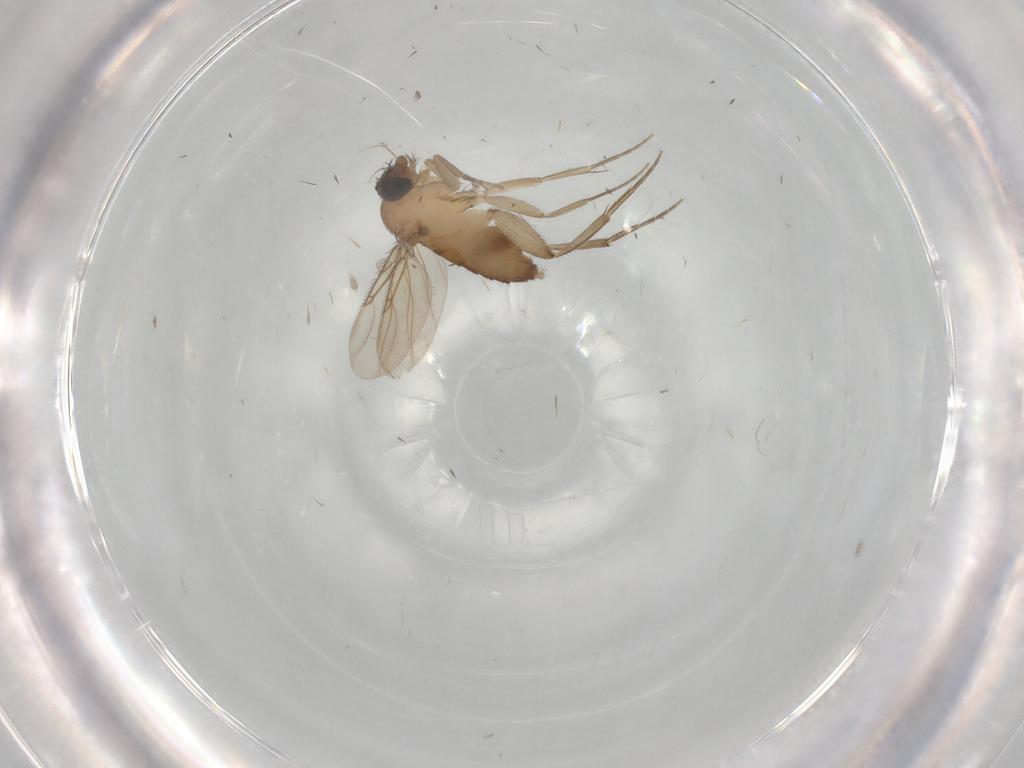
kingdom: Animalia
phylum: Arthropoda
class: Insecta
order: Diptera
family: Phoridae
